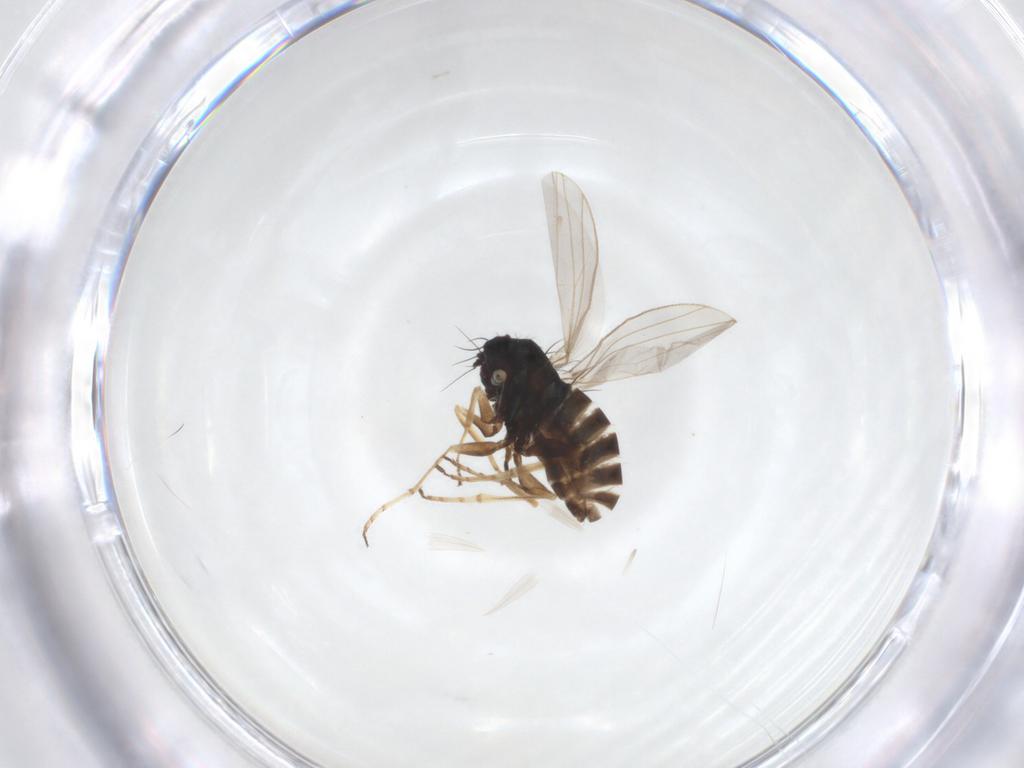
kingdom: Animalia
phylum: Arthropoda
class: Insecta
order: Diptera
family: Dolichopodidae
